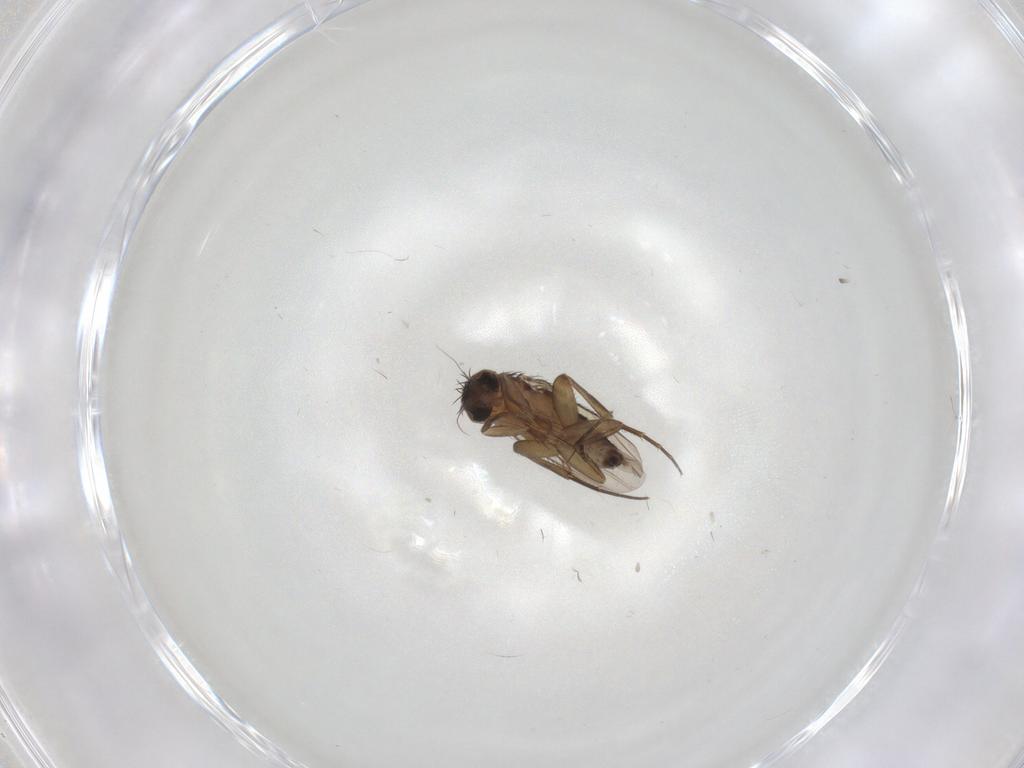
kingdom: Animalia
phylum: Arthropoda
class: Insecta
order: Diptera
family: Phoridae
